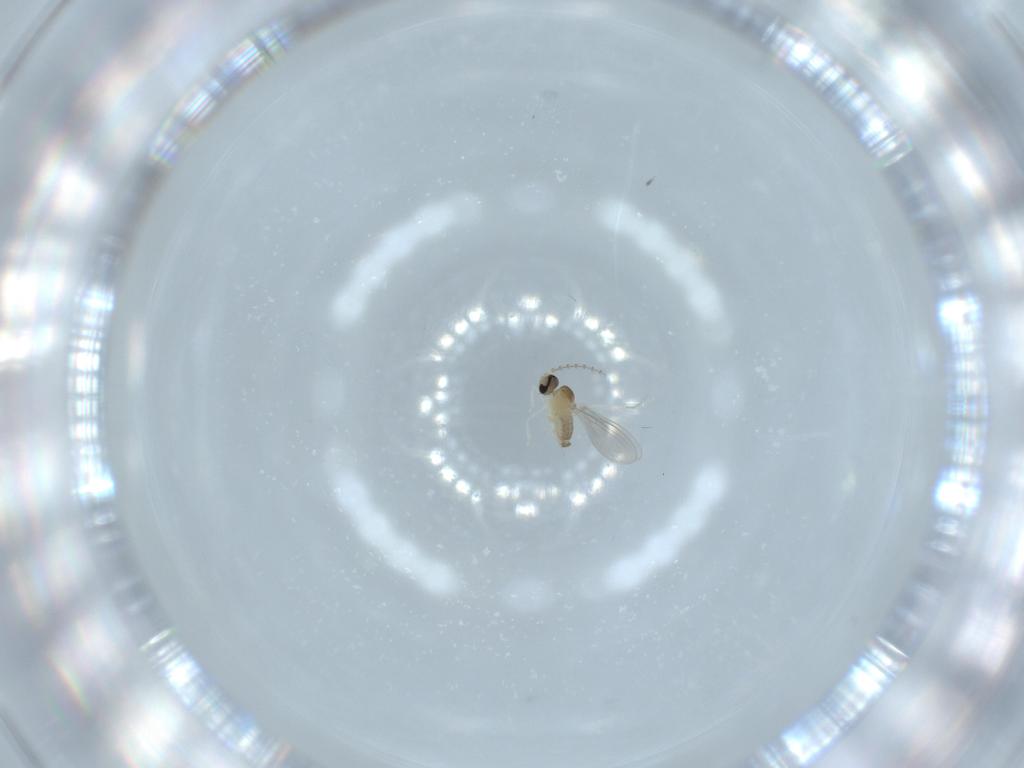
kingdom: Animalia
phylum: Arthropoda
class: Insecta
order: Diptera
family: Cecidomyiidae
